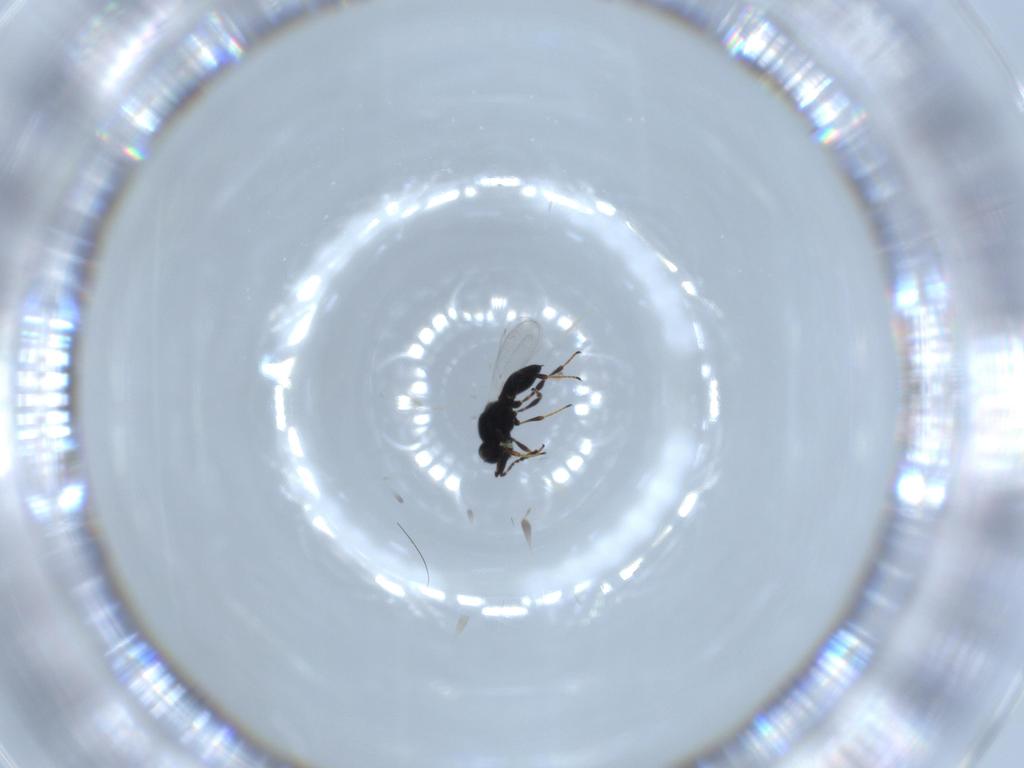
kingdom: Animalia
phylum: Arthropoda
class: Insecta
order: Hymenoptera
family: Platygastridae
